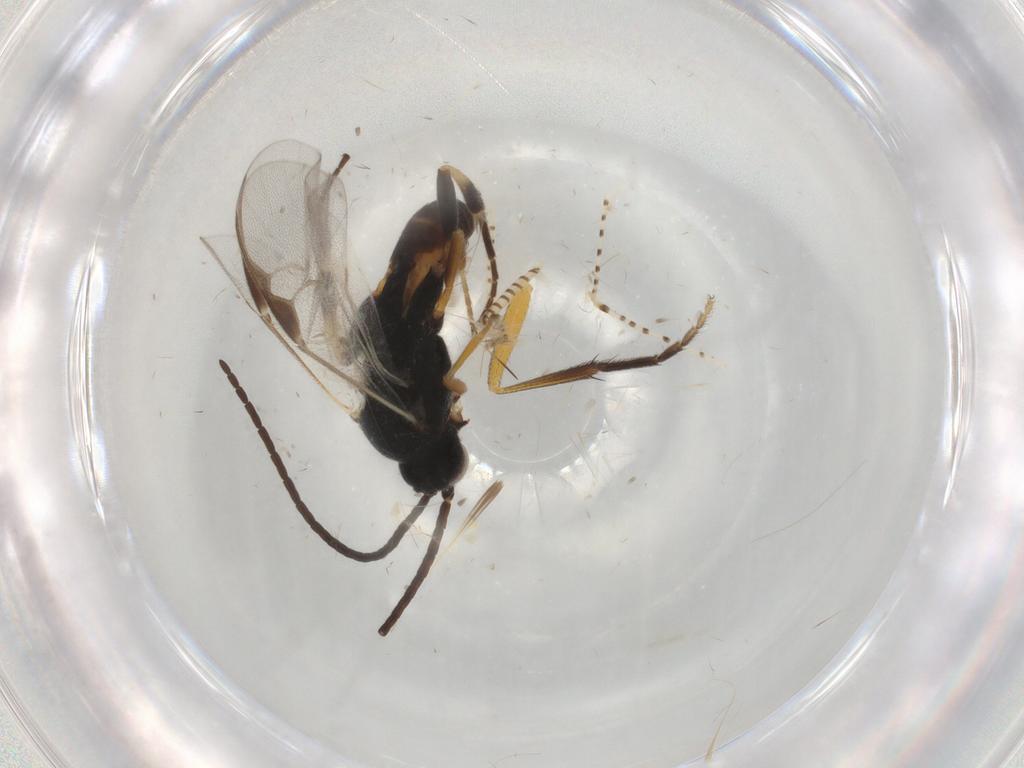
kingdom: Animalia
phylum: Arthropoda
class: Insecta
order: Hymenoptera
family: Braconidae
